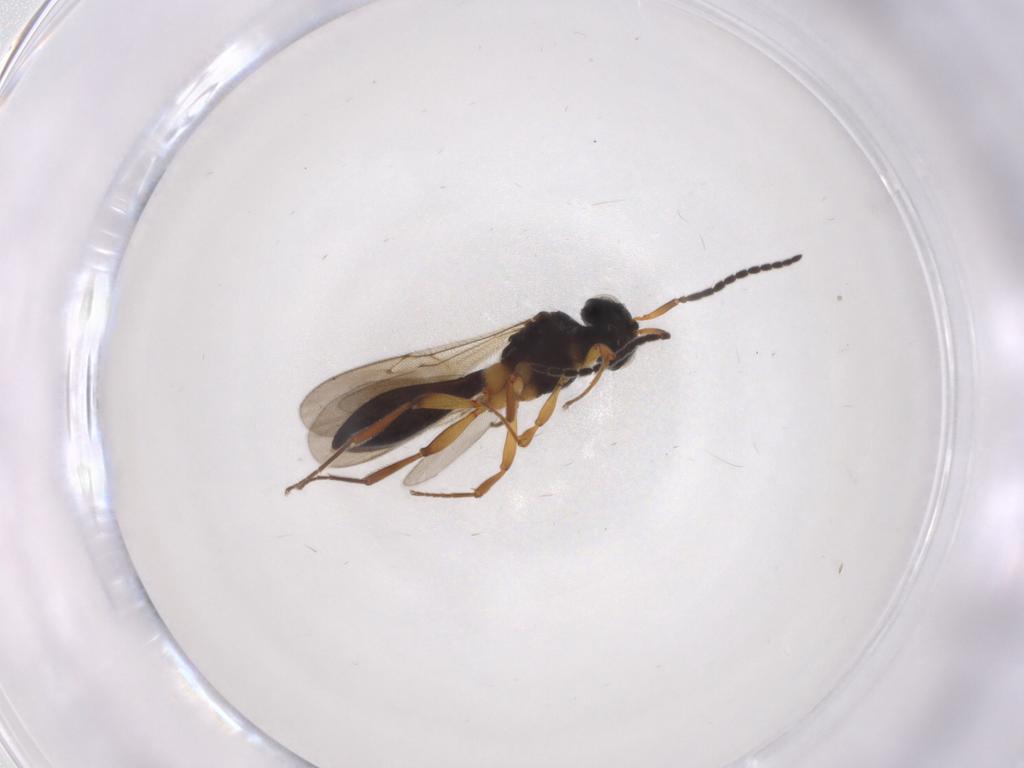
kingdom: Animalia
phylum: Arthropoda
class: Insecta
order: Hymenoptera
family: Scelionidae
